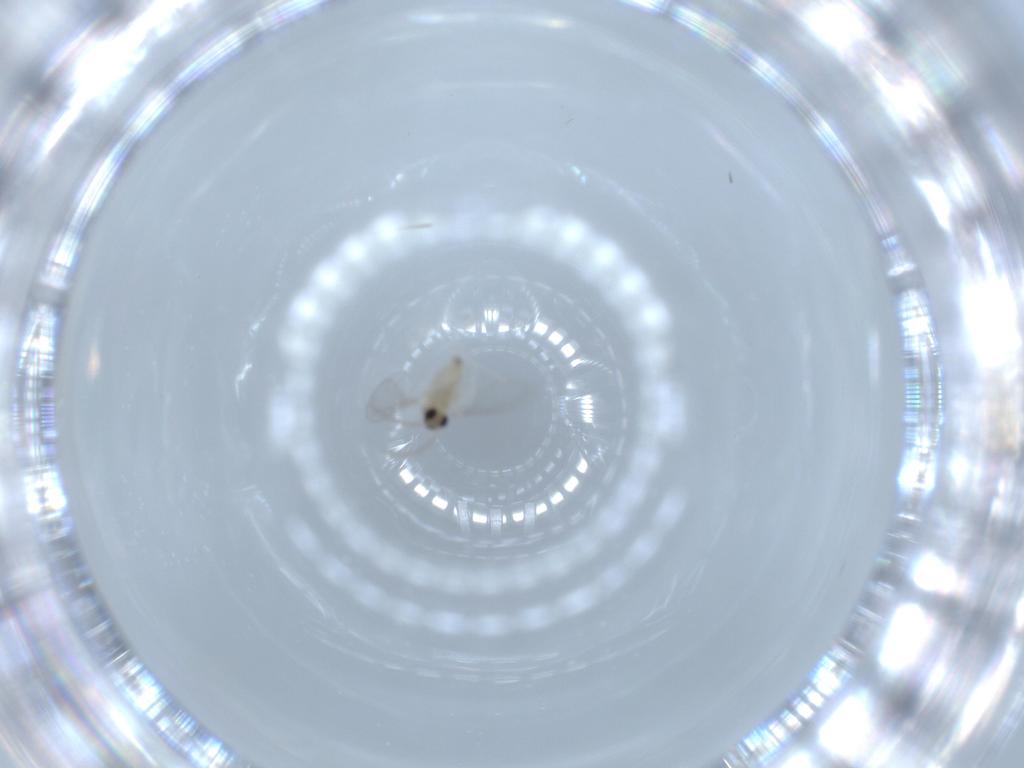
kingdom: Animalia
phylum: Arthropoda
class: Insecta
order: Diptera
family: Cecidomyiidae
